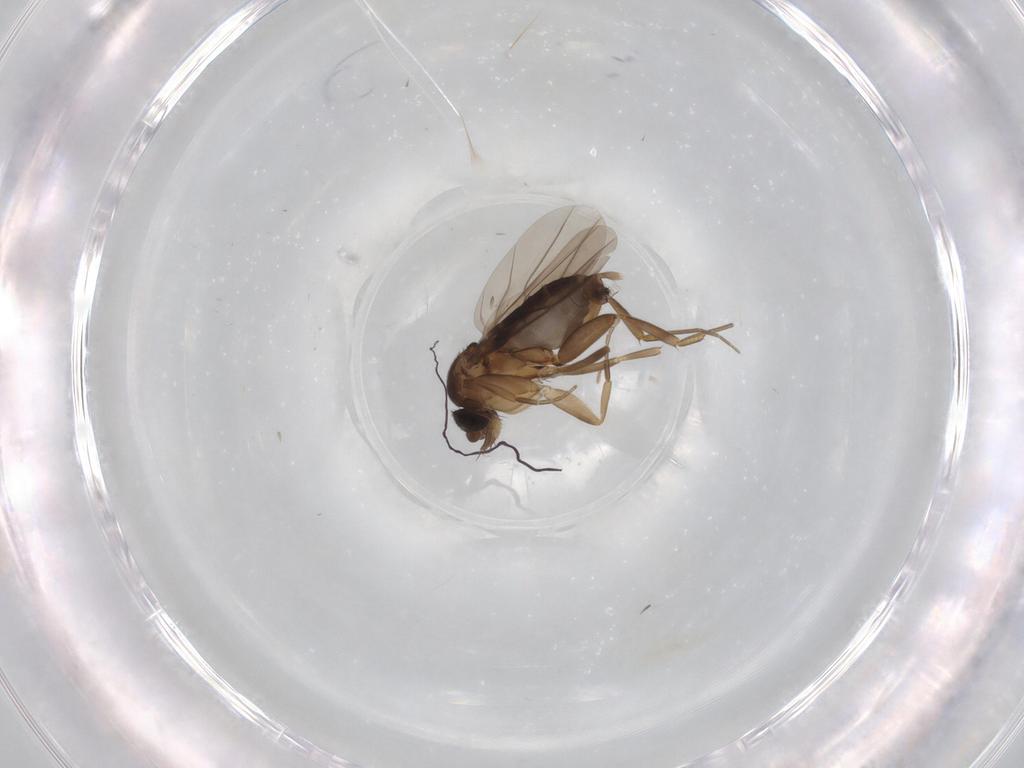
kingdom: Animalia
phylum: Arthropoda
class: Insecta
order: Diptera
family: Phoridae
